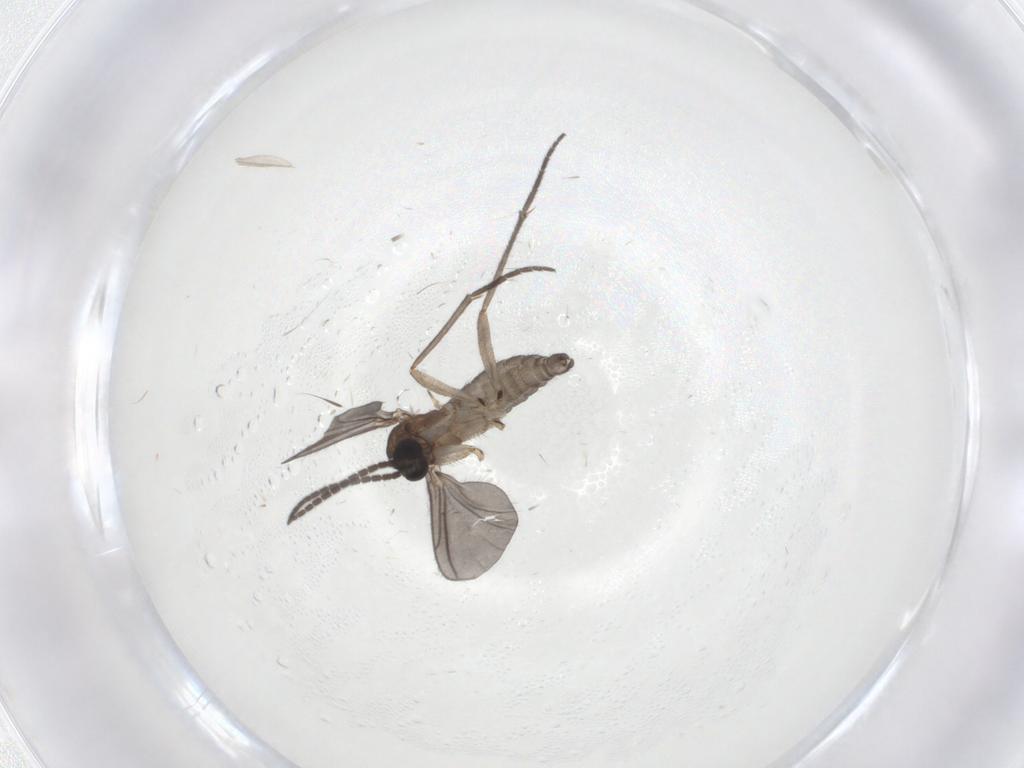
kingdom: Animalia
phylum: Arthropoda
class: Insecta
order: Diptera
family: Sciaridae
